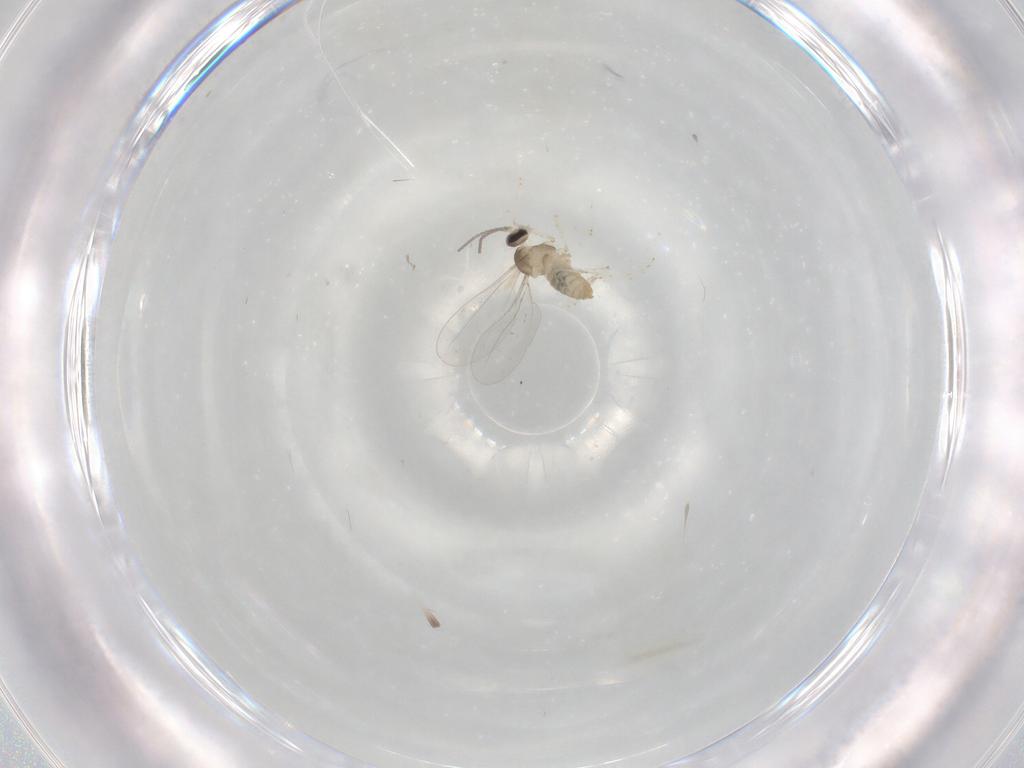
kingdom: Animalia
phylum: Arthropoda
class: Insecta
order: Diptera
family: Cecidomyiidae
